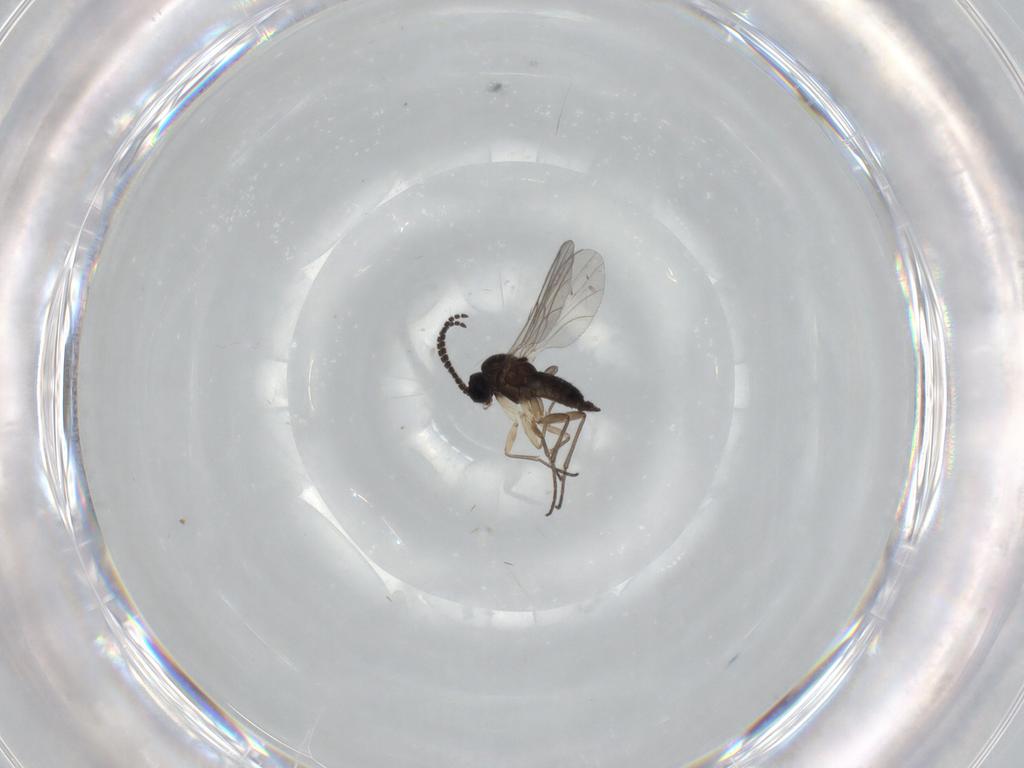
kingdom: Animalia
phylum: Arthropoda
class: Insecta
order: Diptera
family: Sciaridae
